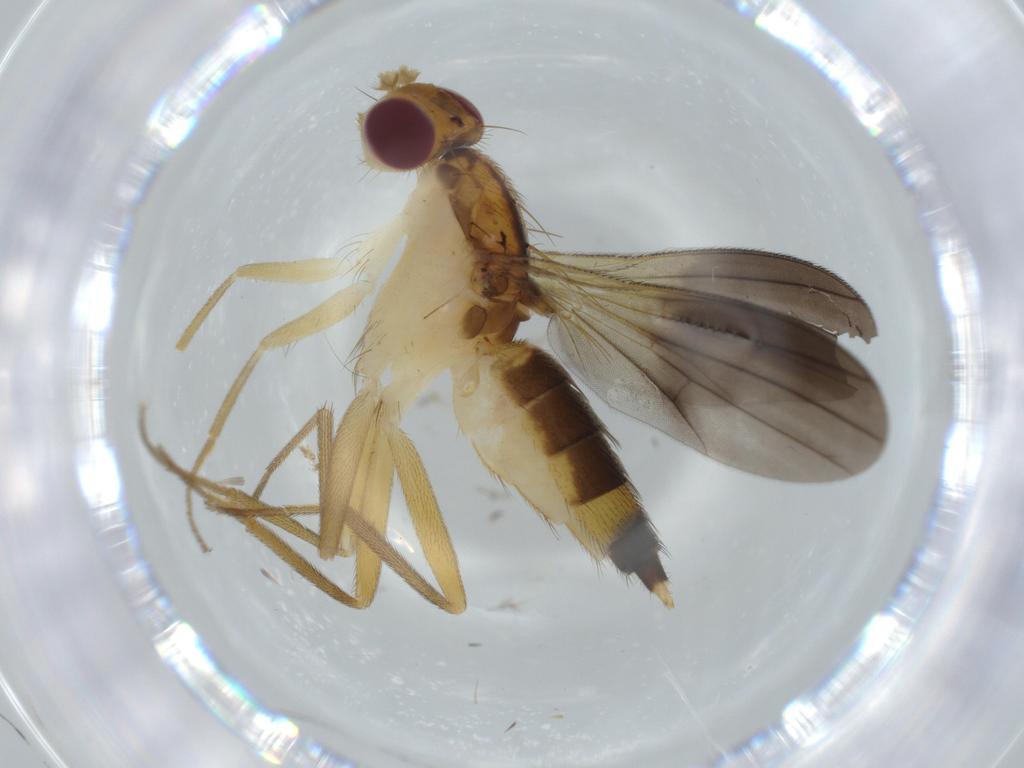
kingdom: Animalia
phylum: Arthropoda
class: Insecta
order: Diptera
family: Clusiidae
